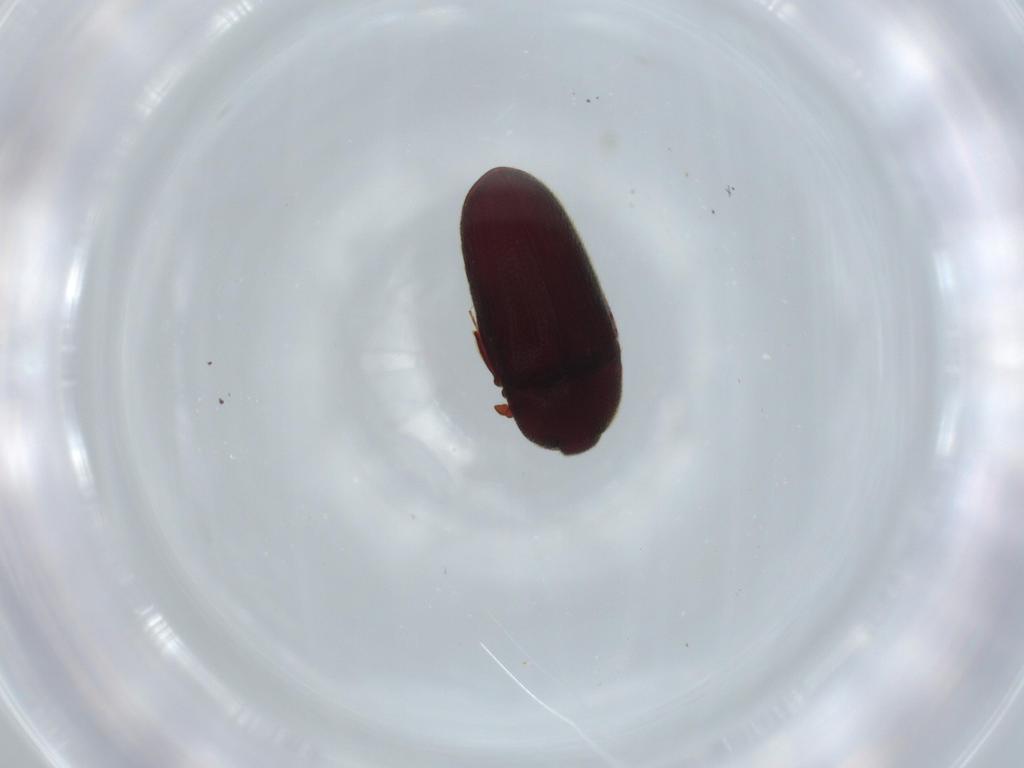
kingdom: Animalia
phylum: Arthropoda
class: Insecta
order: Coleoptera
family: Throscidae
